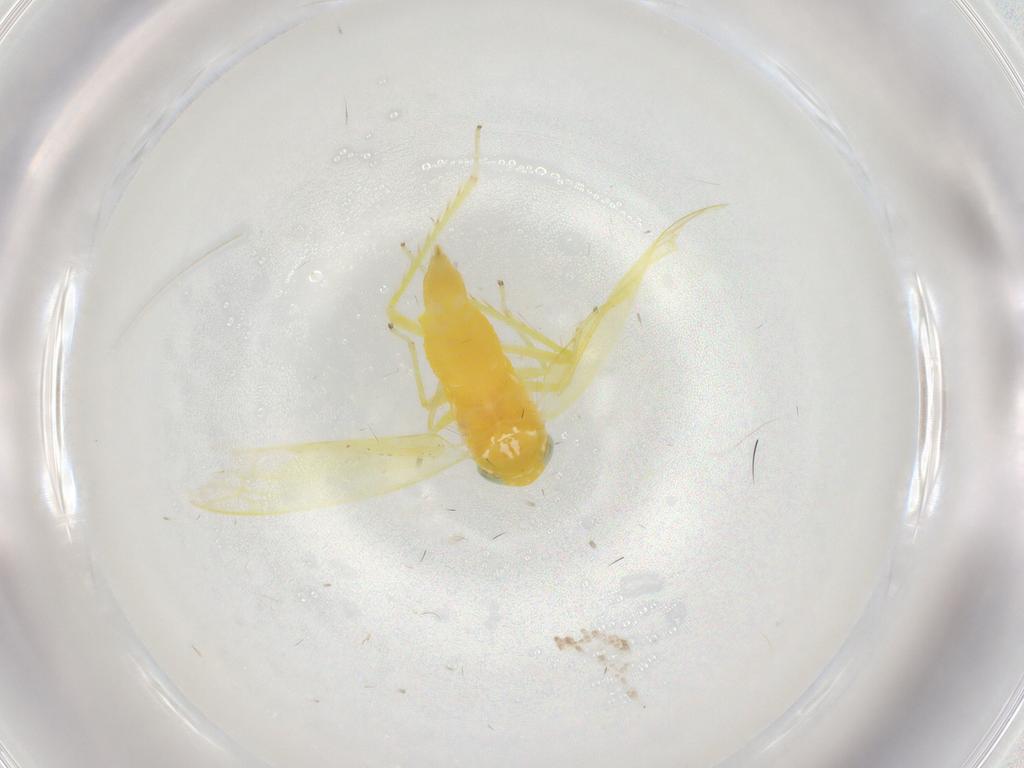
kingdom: Animalia
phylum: Arthropoda
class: Insecta
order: Hemiptera
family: Cicadellidae
